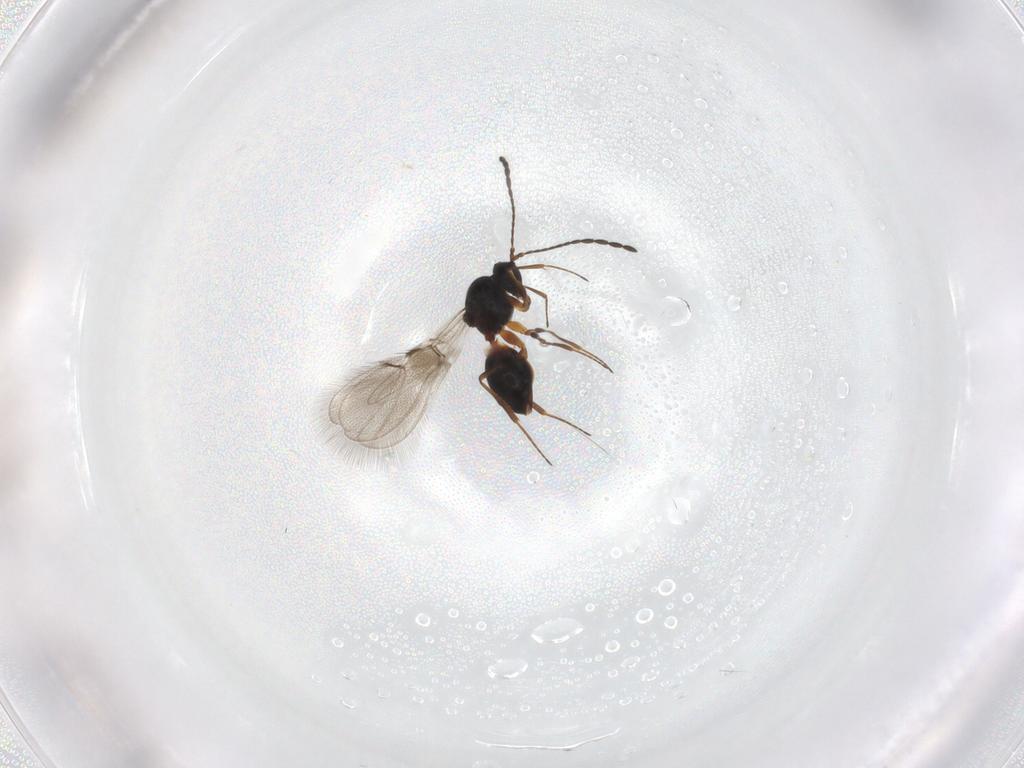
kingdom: Animalia
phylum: Arthropoda
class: Insecta
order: Hymenoptera
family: Figitidae
